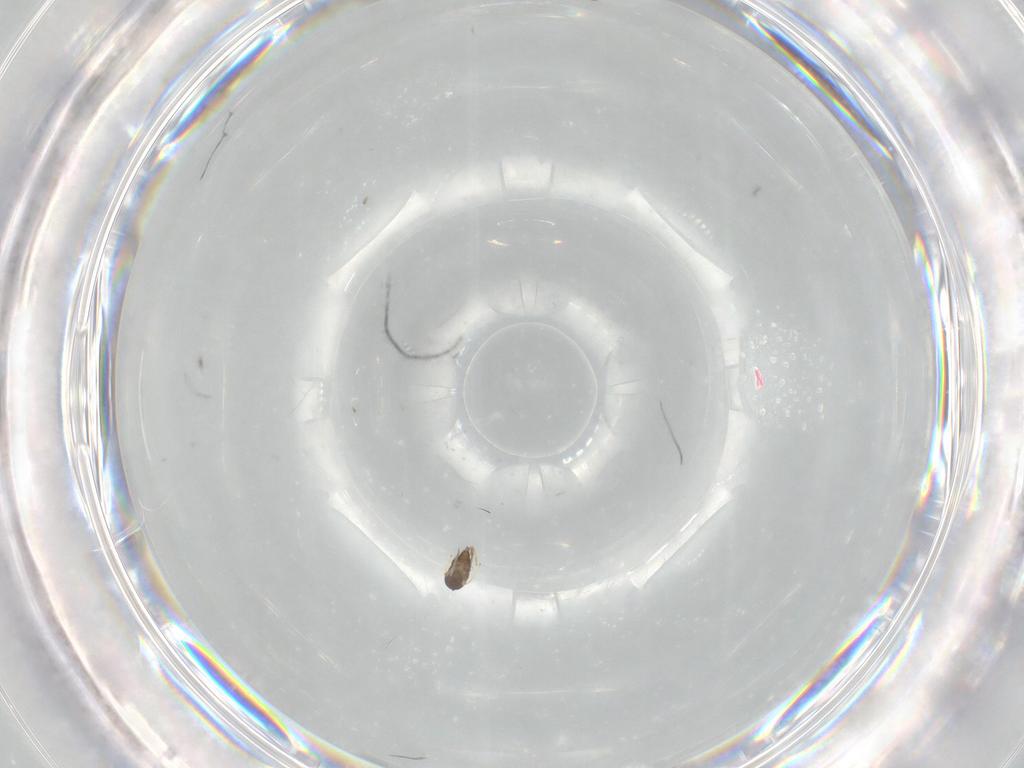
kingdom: Animalia
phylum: Arthropoda
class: Insecta
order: Hymenoptera
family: Encyrtidae
